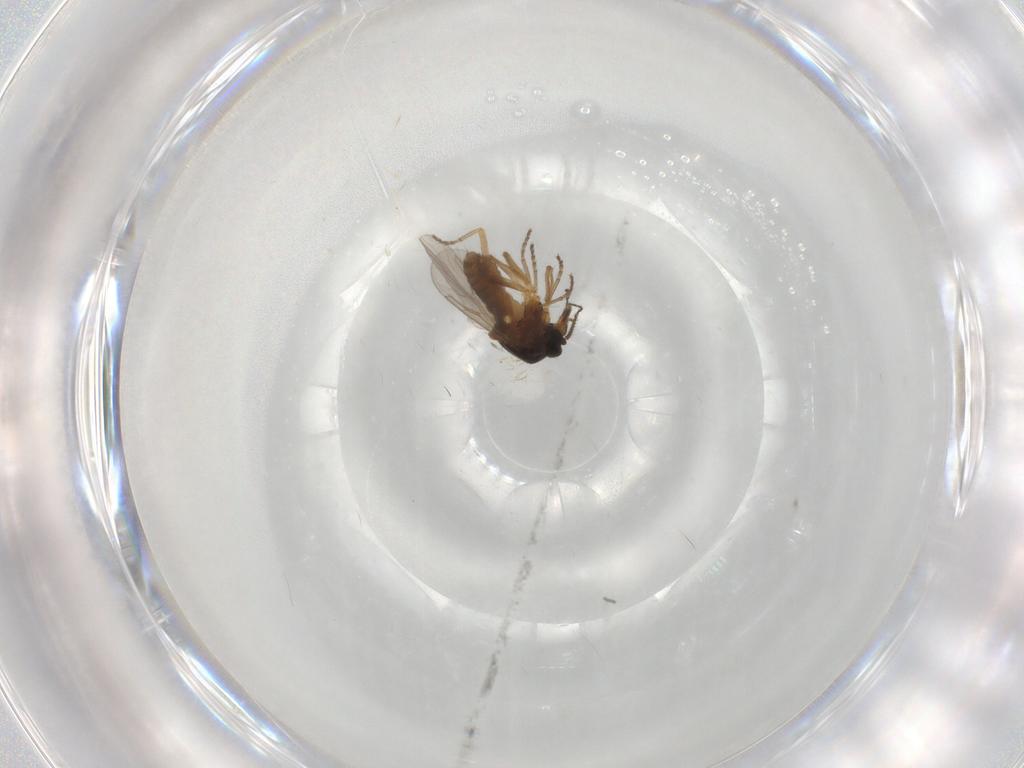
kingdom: Animalia
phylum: Arthropoda
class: Insecta
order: Diptera
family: Ceratopogonidae
